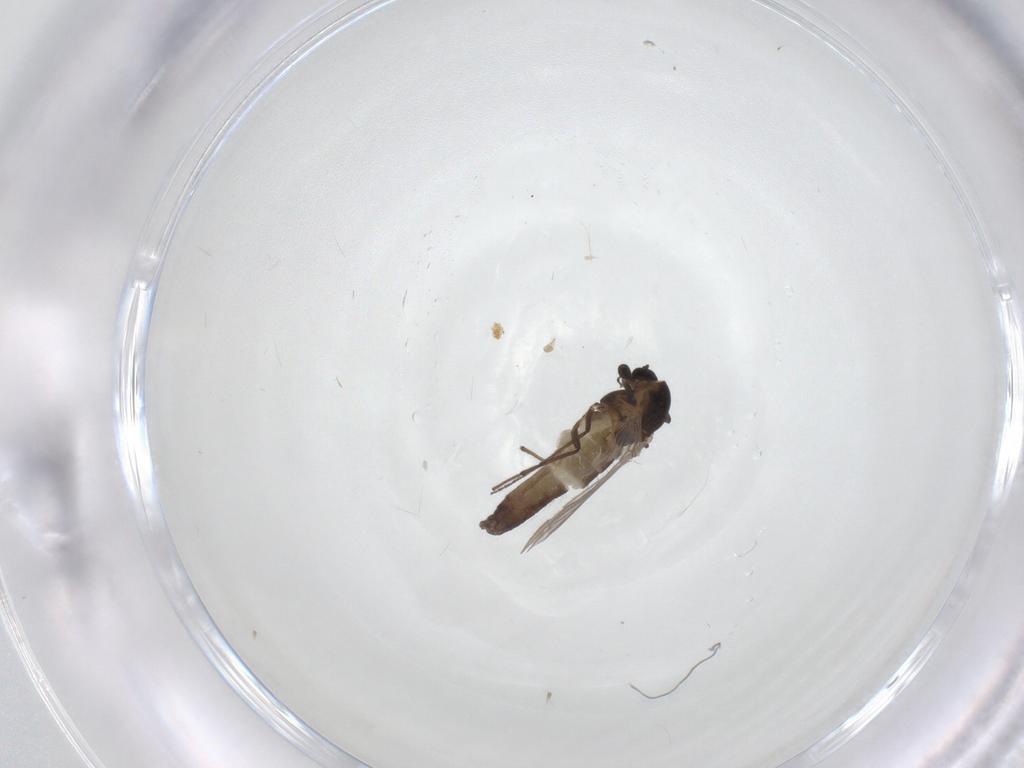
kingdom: Animalia
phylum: Arthropoda
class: Insecta
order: Diptera
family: Chironomidae
